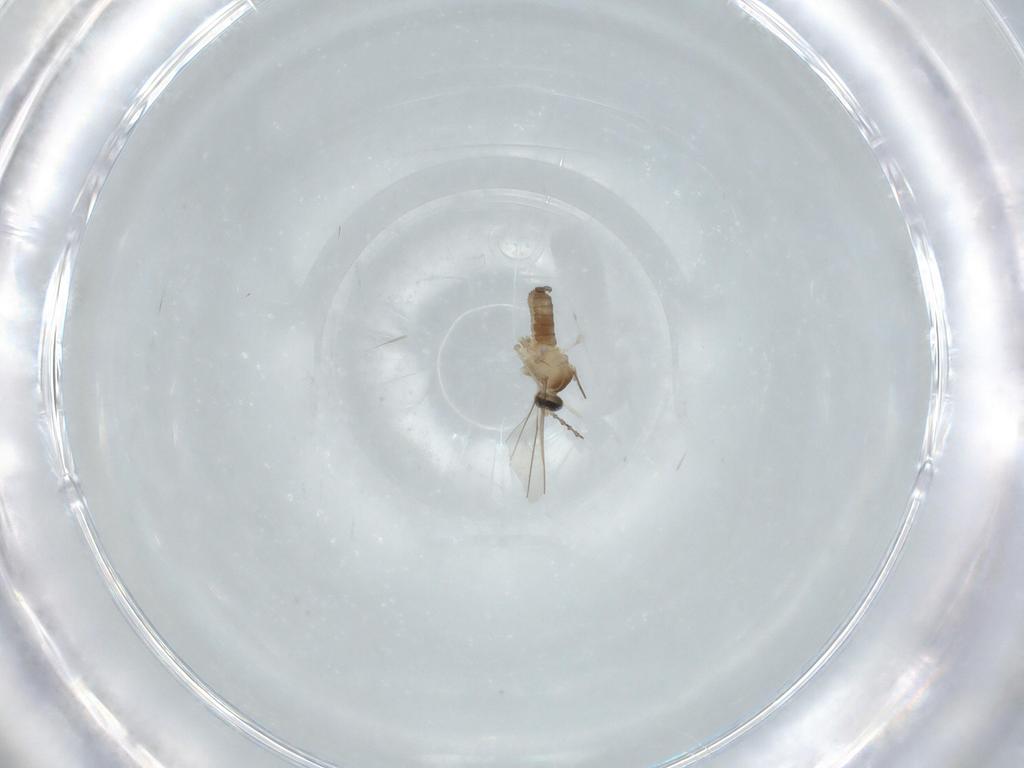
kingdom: Animalia
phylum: Arthropoda
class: Insecta
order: Diptera
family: Cecidomyiidae
